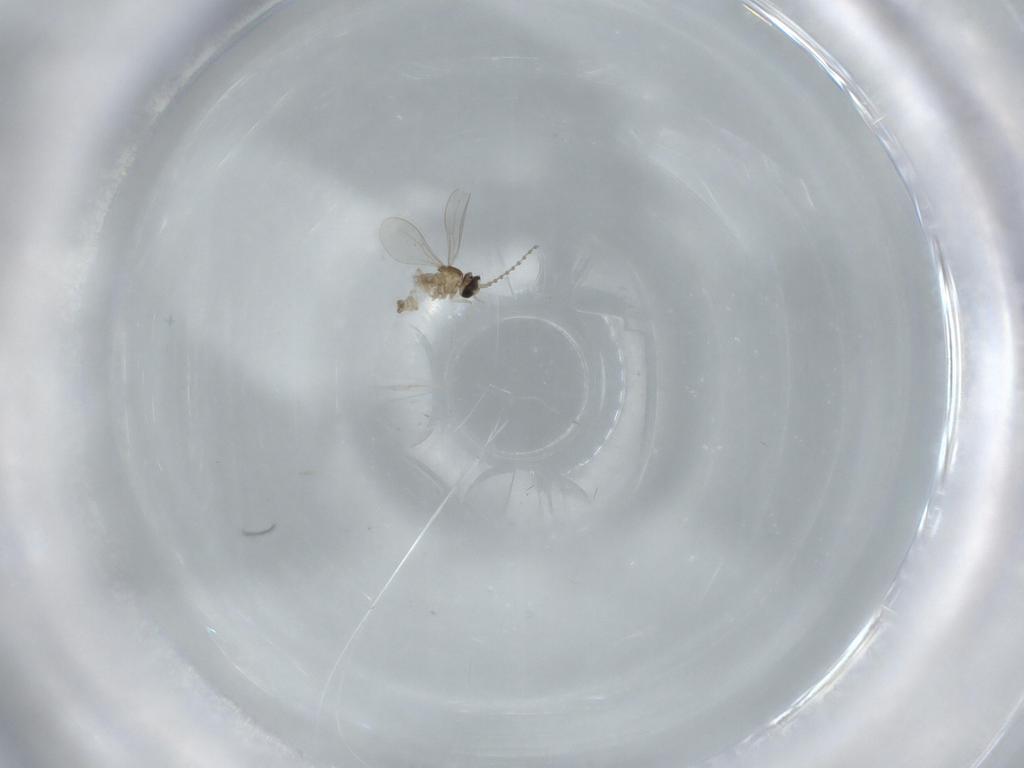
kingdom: Animalia
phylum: Arthropoda
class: Insecta
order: Diptera
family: Cecidomyiidae
